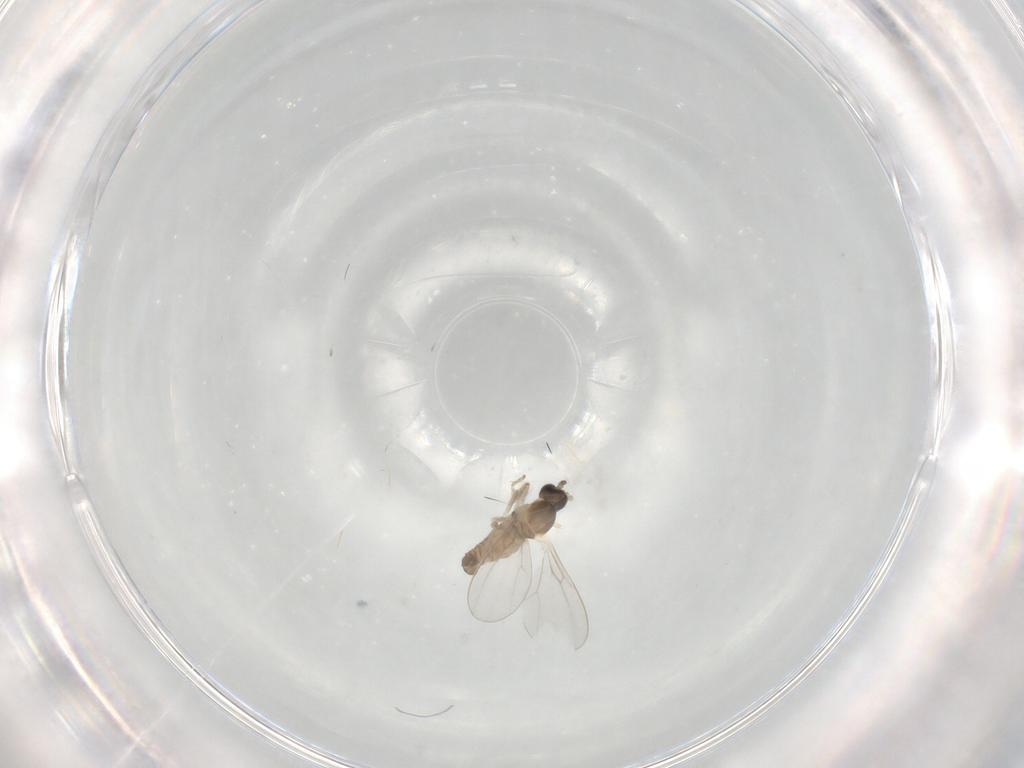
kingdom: Animalia
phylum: Arthropoda
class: Insecta
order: Diptera
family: Cecidomyiidae
